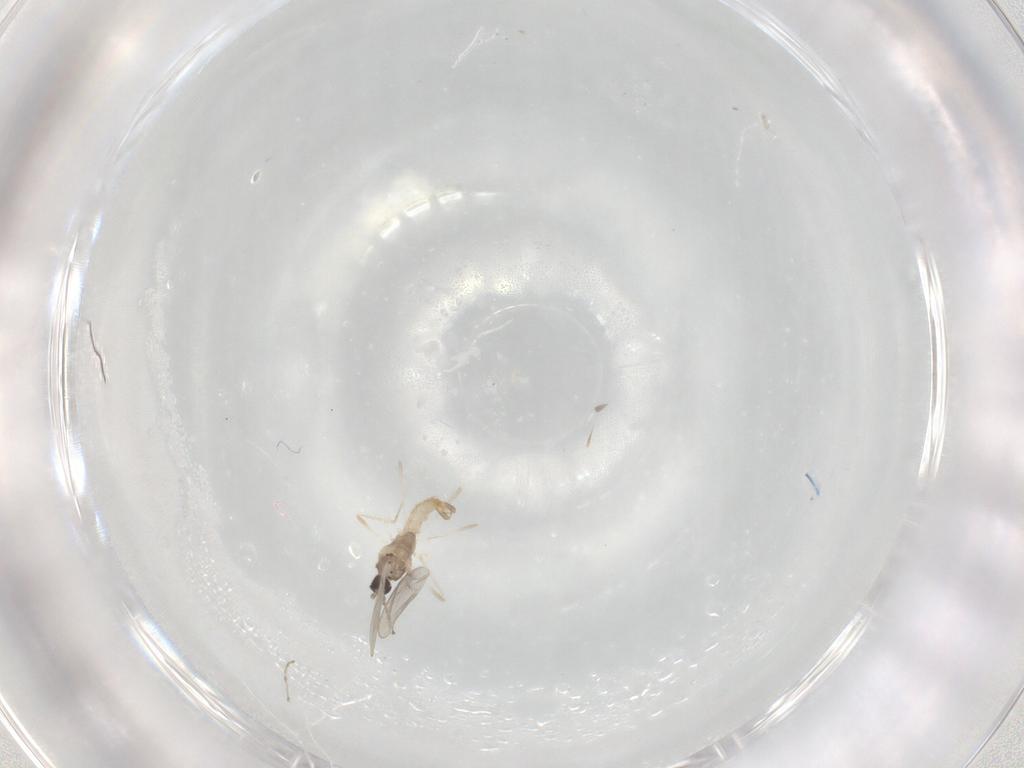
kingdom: Animalia
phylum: Arthropoda
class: Insecta
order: Diptera
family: Cecidomyiidae
